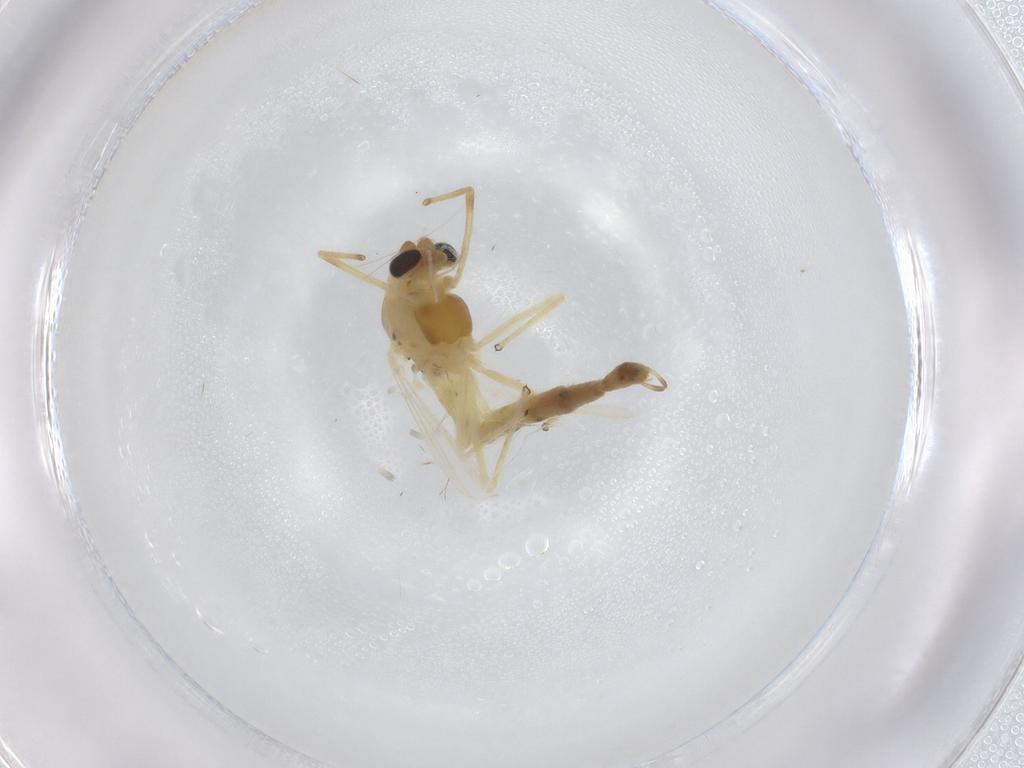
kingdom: Animalia
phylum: Arthropoda
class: Insecta
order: Diptera
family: Chironomidae
